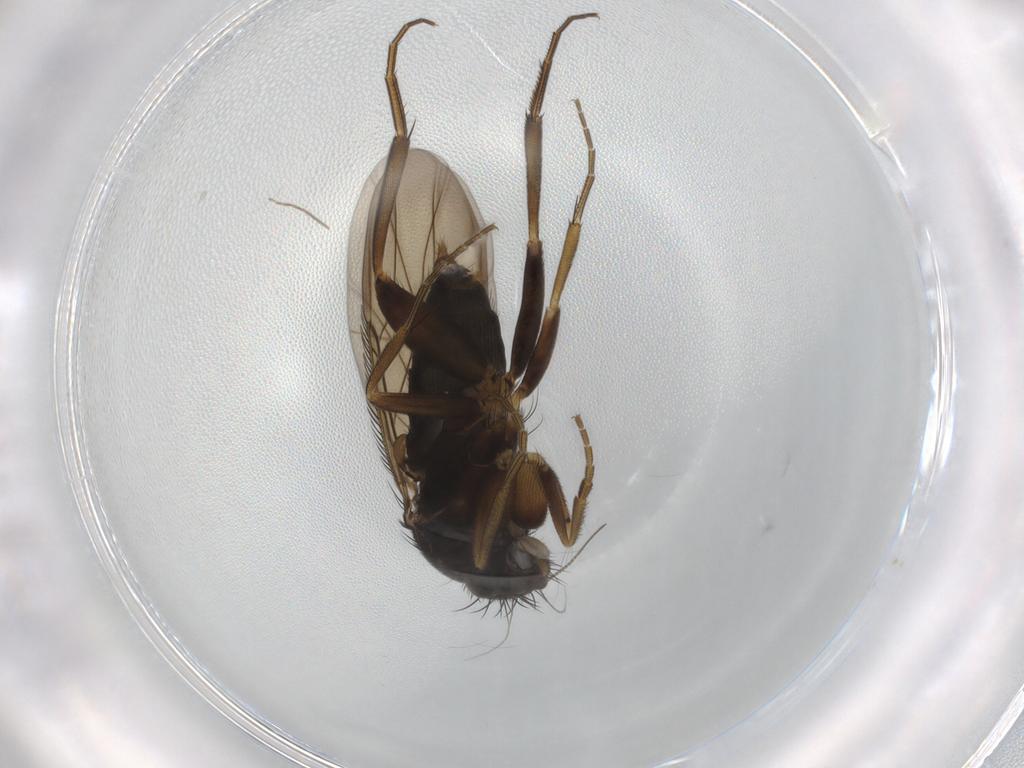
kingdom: Animalia
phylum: Arthropoda
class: Insecta
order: Diptera
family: Phoridae
